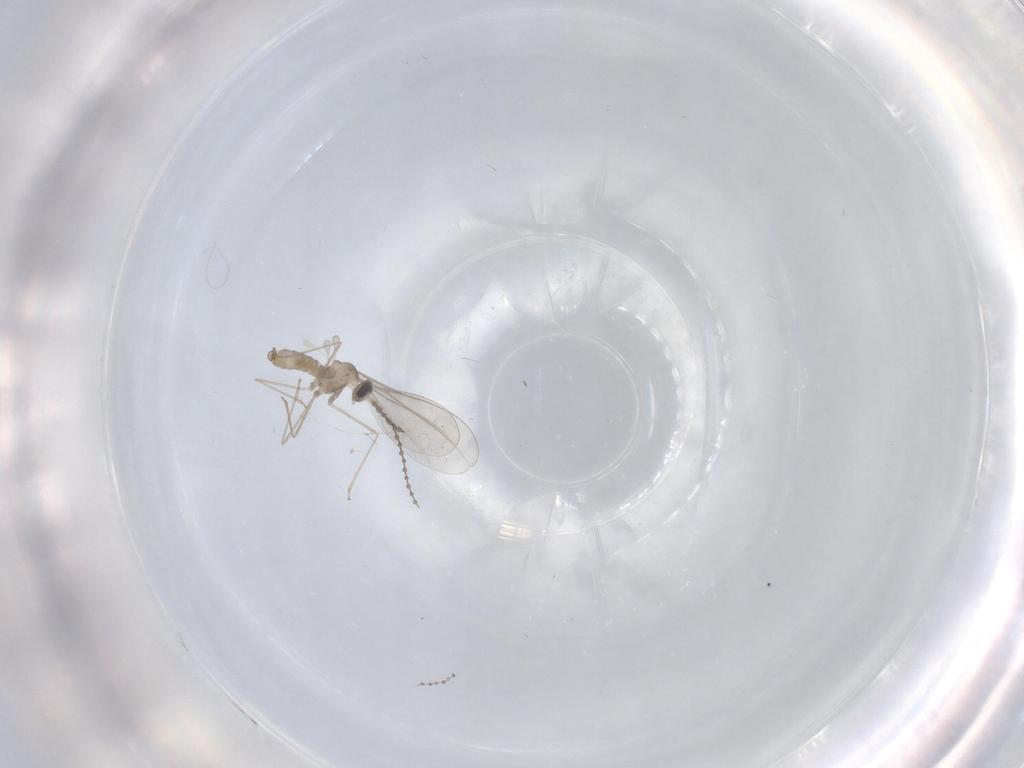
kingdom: Animalia
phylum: Arthropoda
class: Insecta
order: Diptera
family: Cecidomyiidae
